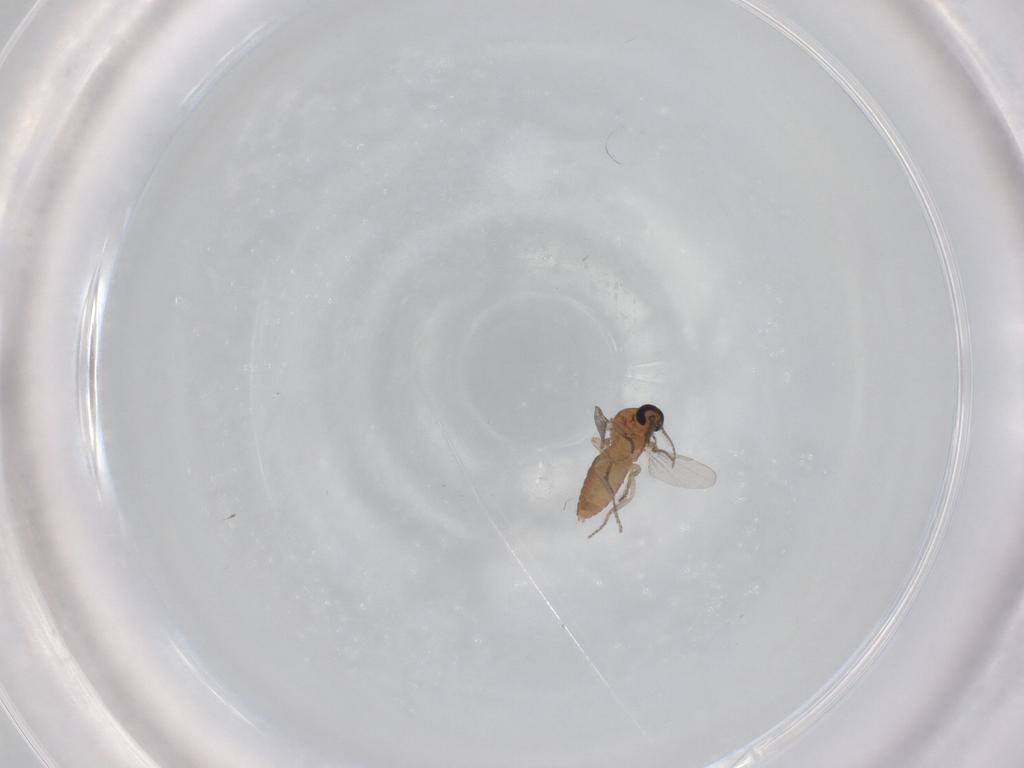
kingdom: Animalia
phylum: Arthropoda
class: Insecta
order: Diptera
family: Ceratopogonidae
